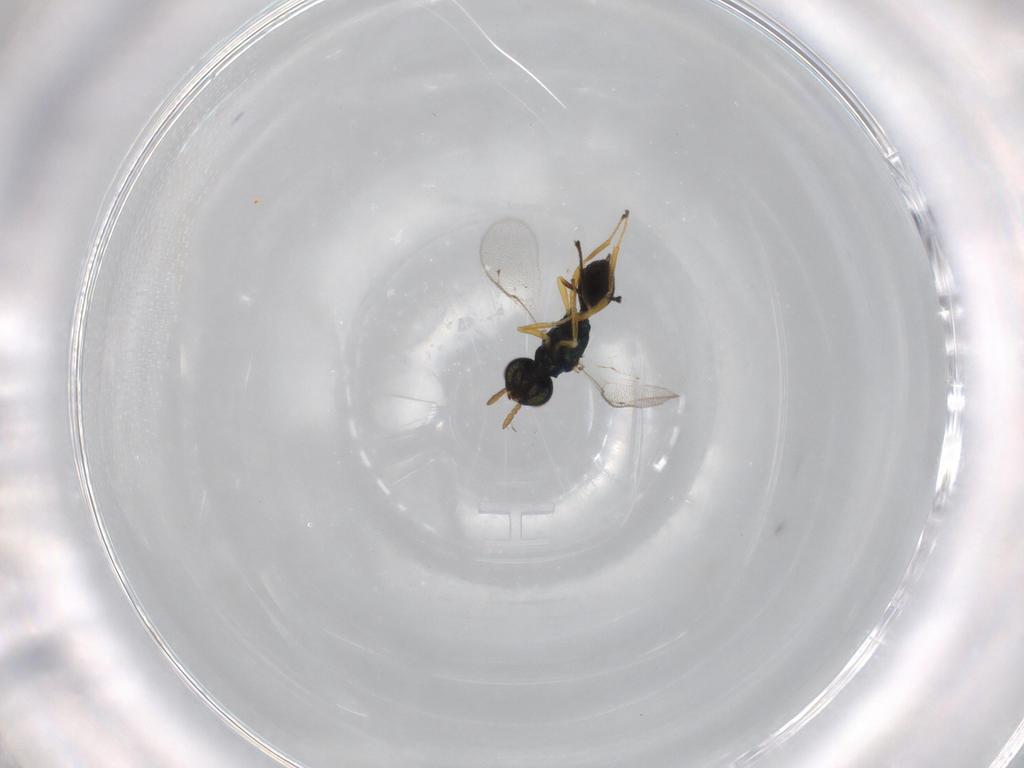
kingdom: Animalia
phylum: Arthropoda
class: Insecta
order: Hymenoptera
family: Pteromalidae
